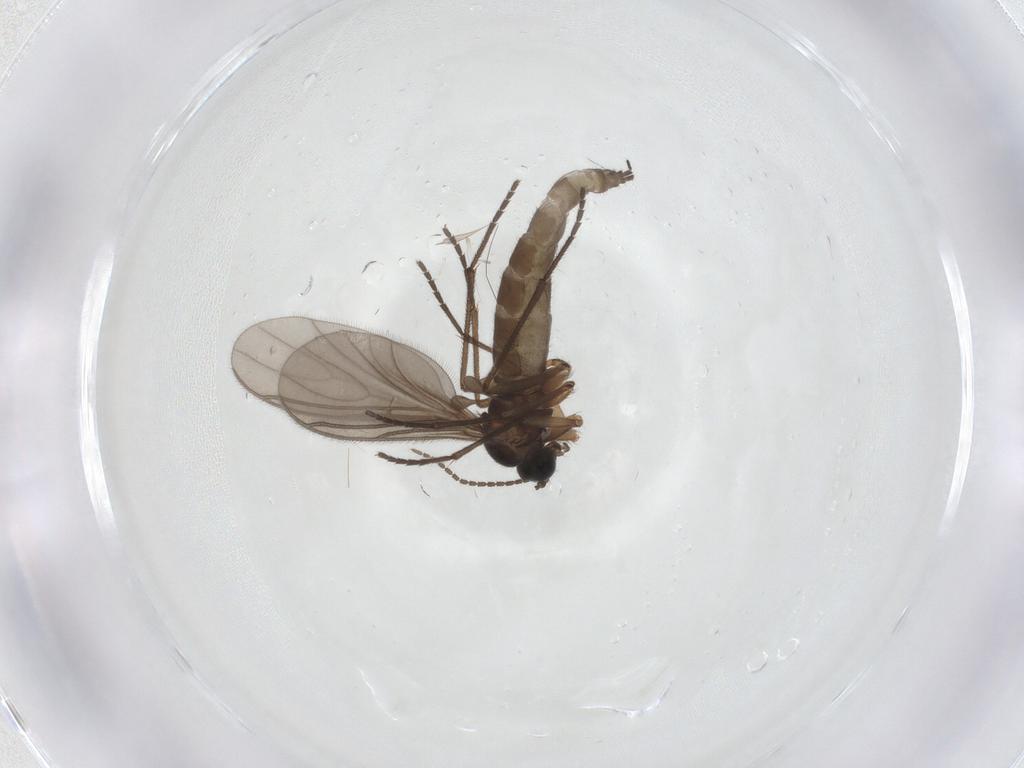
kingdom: Animalia
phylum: Arthropoda
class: Insecta
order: Diptera
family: Sciaridae
